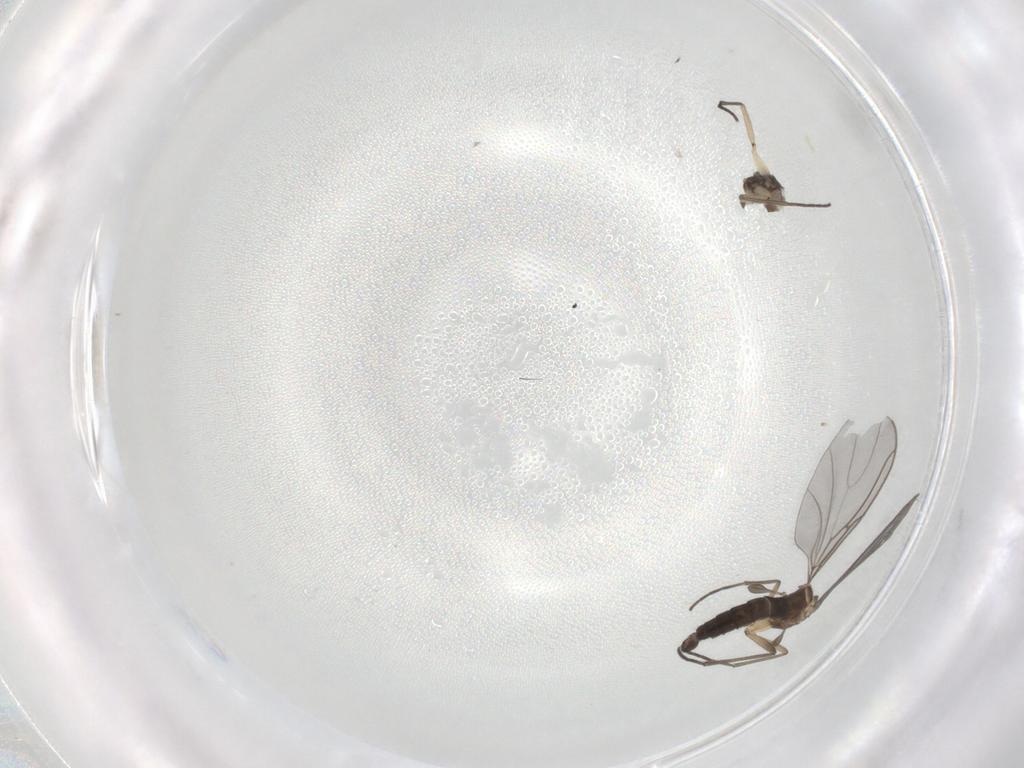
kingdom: Animalia
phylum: Arthropoda
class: Insecta
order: Diptera
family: Sciaridae
